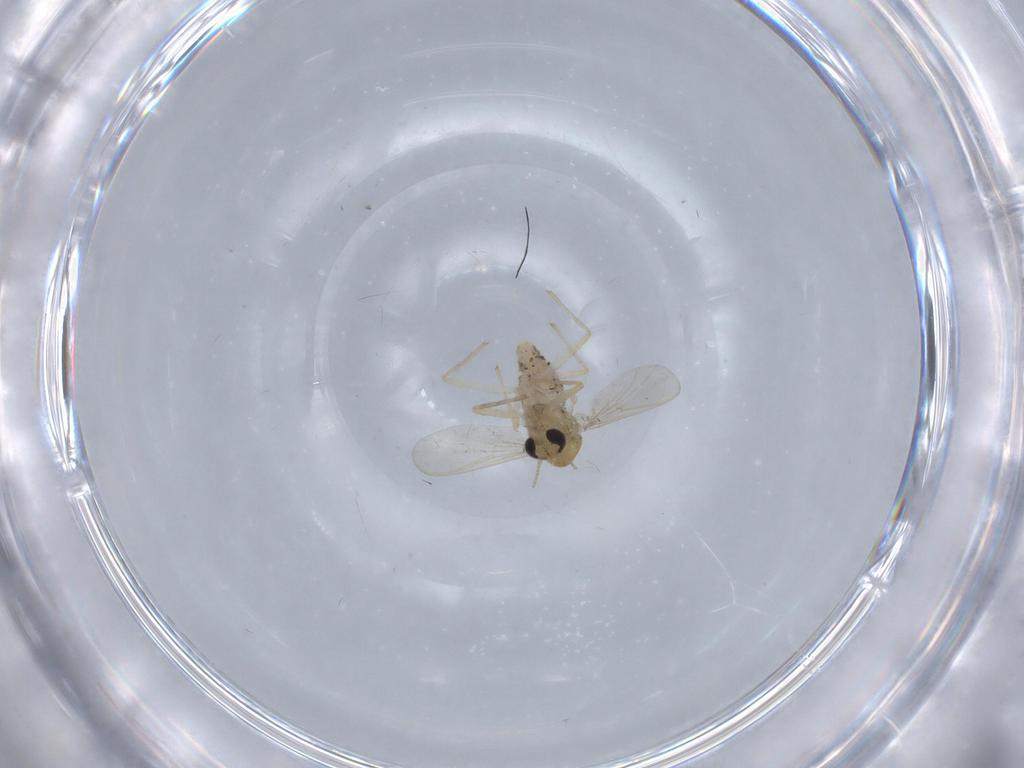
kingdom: Animalia
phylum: Arthropoda
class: Insecta
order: Diptera
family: Chironomidae
